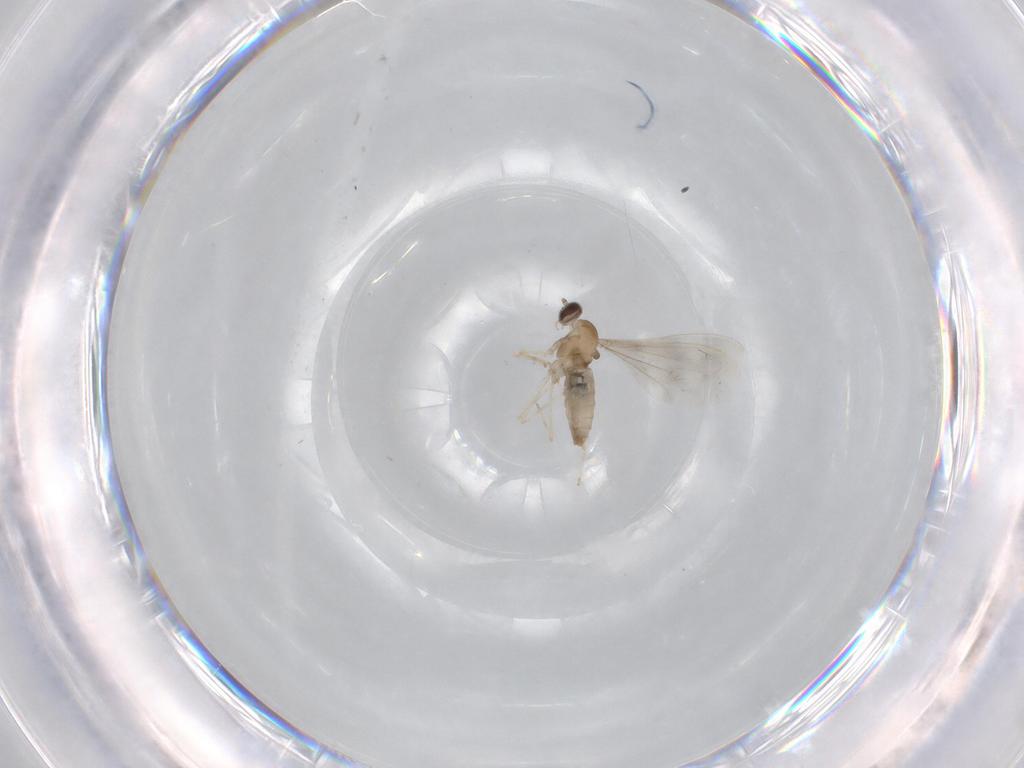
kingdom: Animalia
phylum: Arthropoda
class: Insecta
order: Diptera
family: Cecidomyiidae
